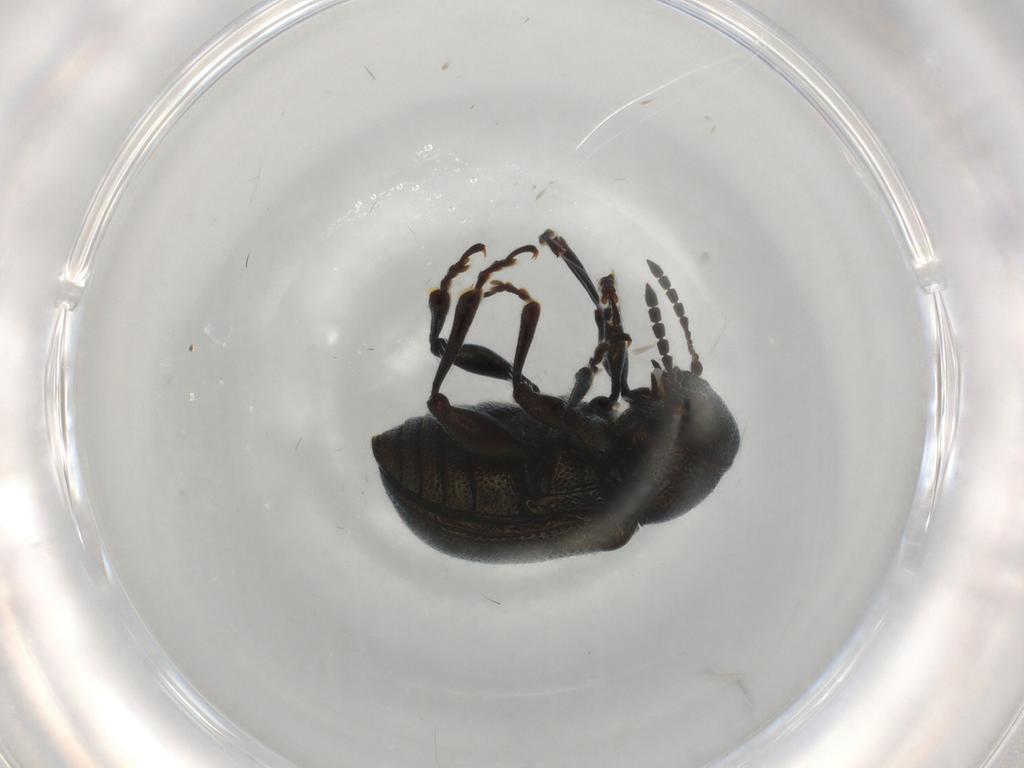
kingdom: Animalia
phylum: Arthropoda
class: Insecta
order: Coleoptera
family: Chrysomelidae
